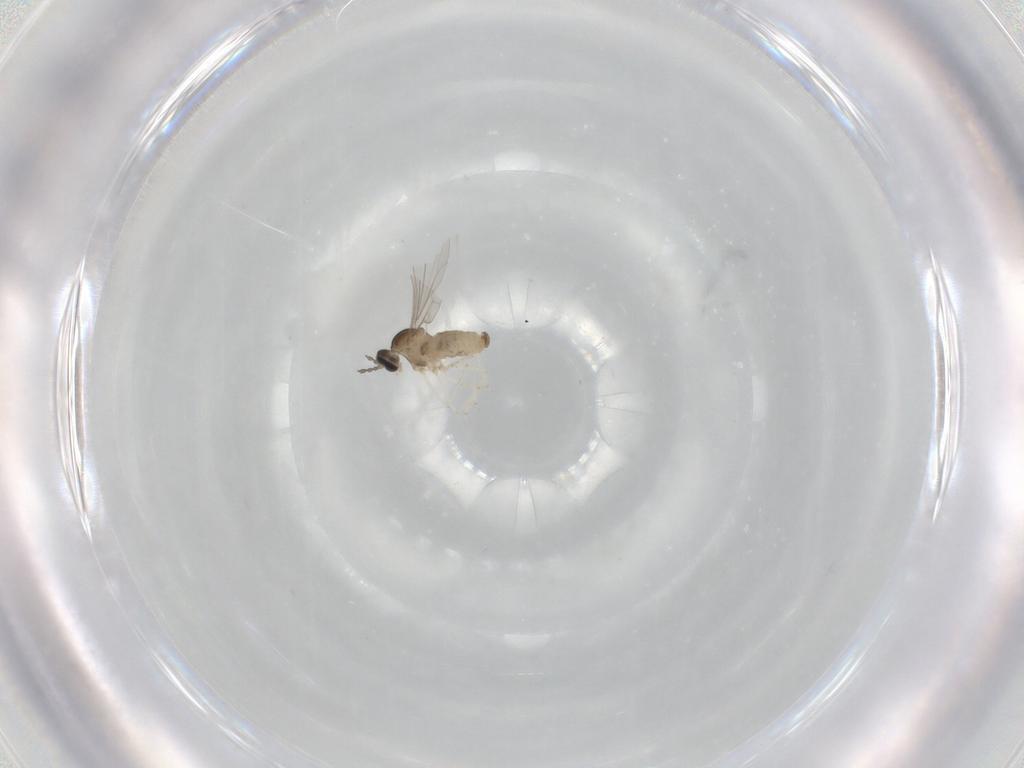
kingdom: Animalia
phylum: Arthropoda
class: Insecta
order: Diptera
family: Cecidomyiidae
